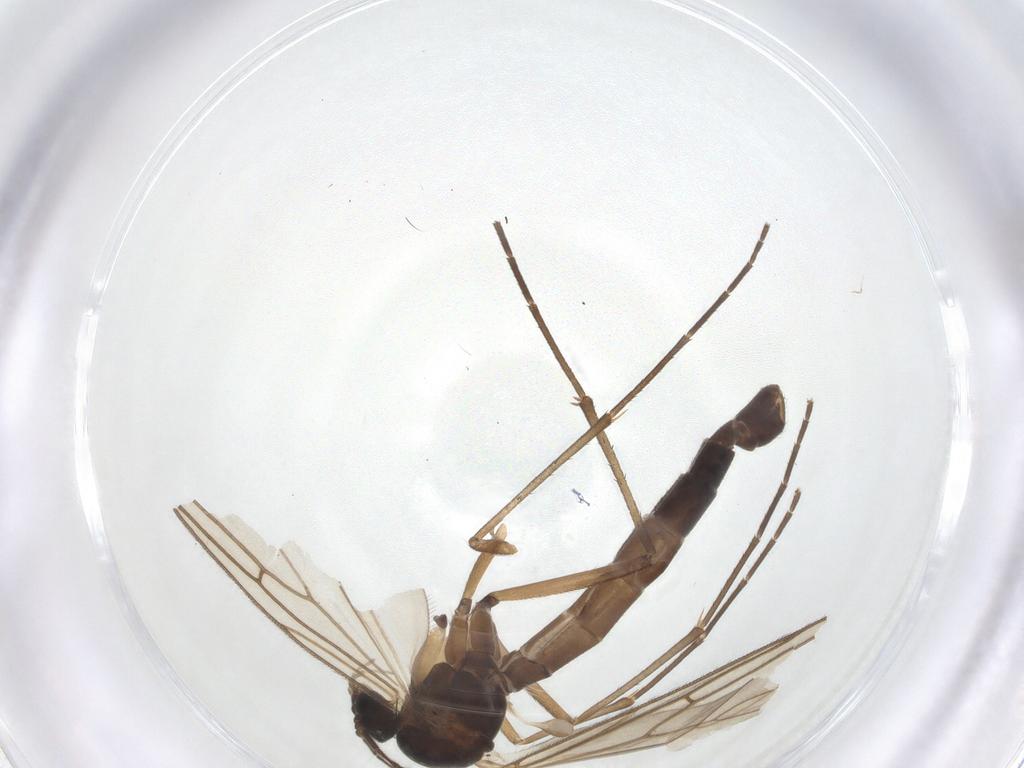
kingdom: Animalia
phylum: Arthropoda
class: Insecta
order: Diptera
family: Mycetophilidae
